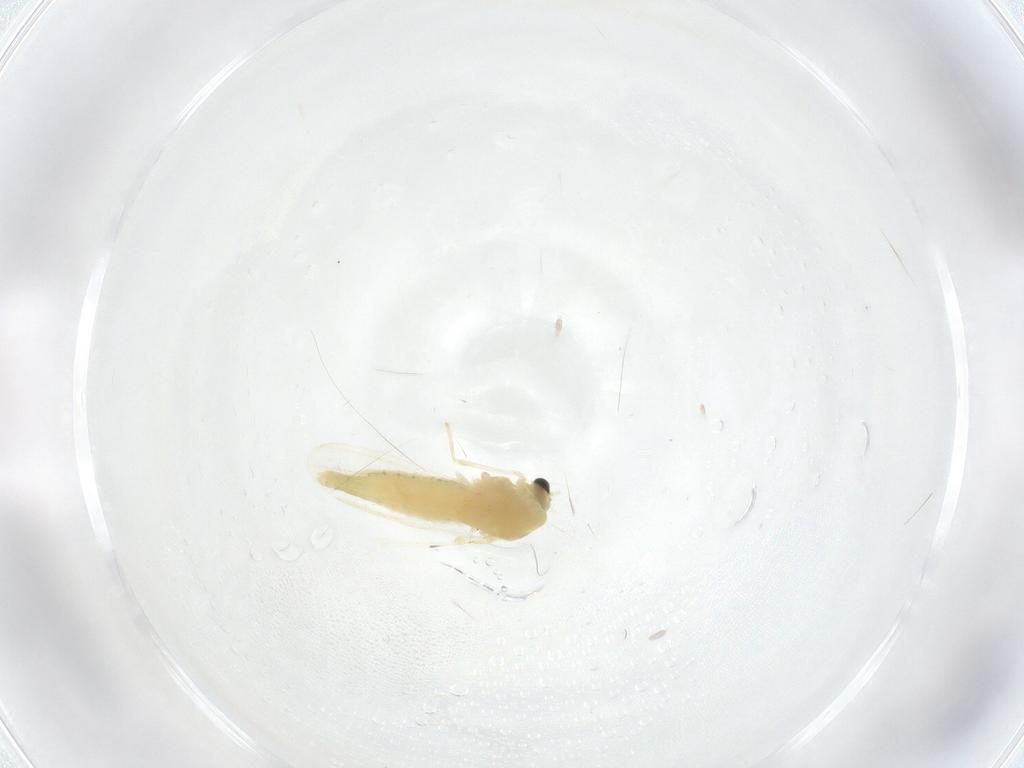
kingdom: Animalia
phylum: Arthropoda
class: Insecta
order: Diptera
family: Chironomidae
